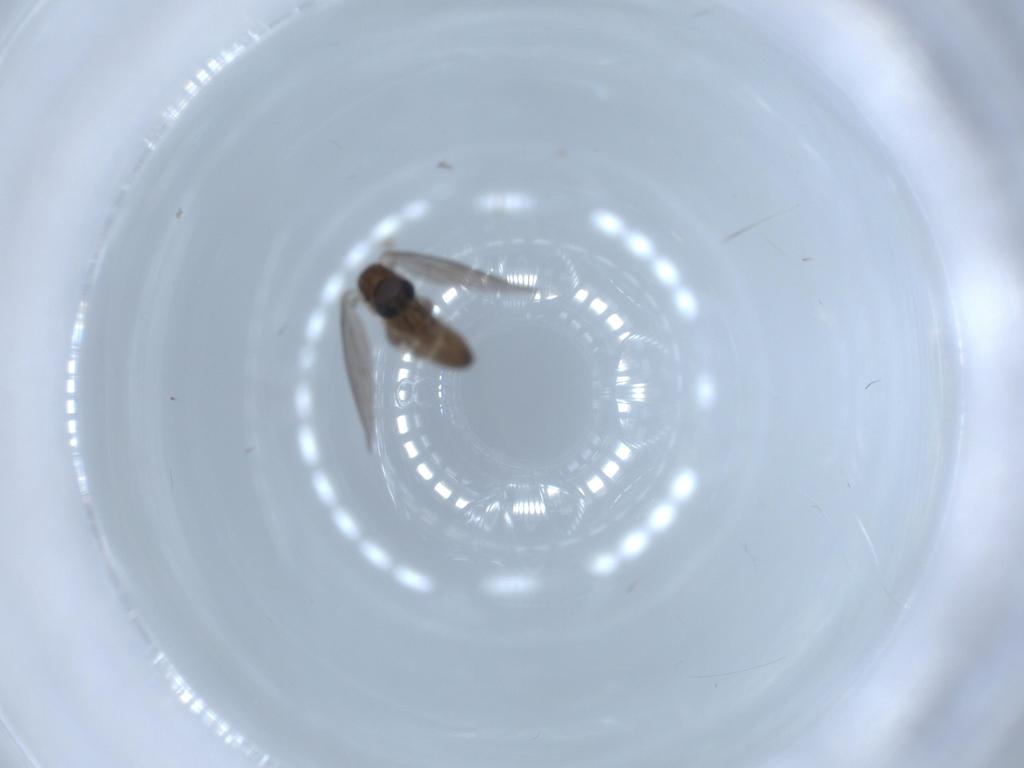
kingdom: Animalia
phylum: Arthropoda
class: Insecta
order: Diptera
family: Psychodidae
